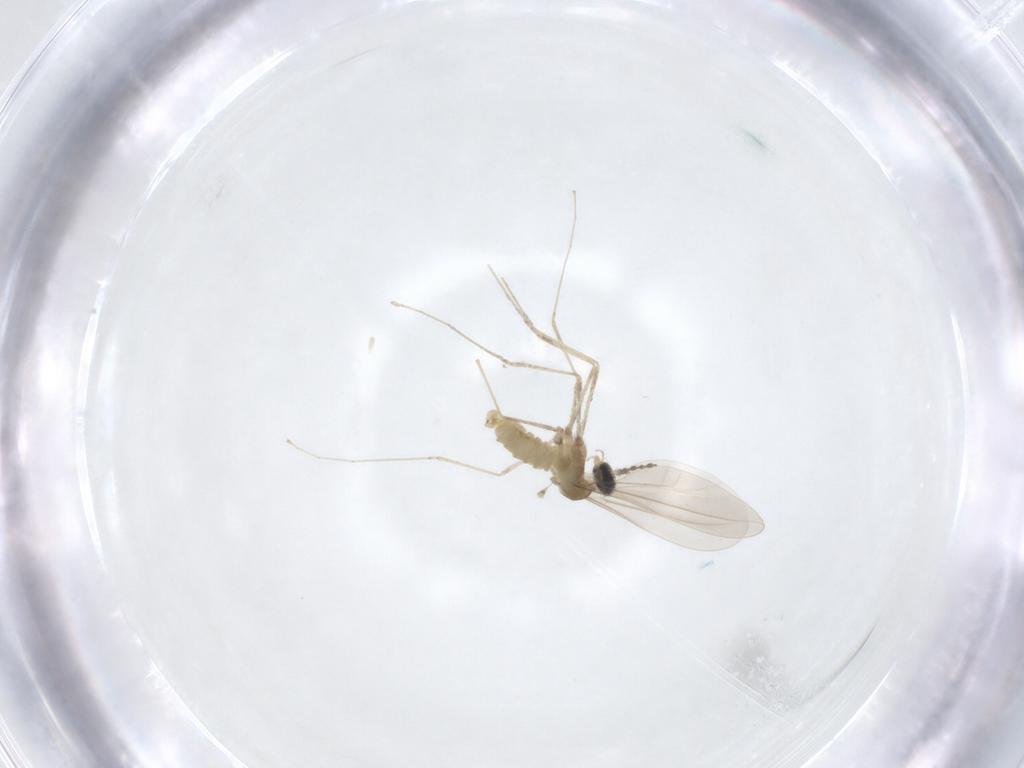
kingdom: Animalia
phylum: Arthropoda
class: Insecta
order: Diptera
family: Cecidomyiidae
